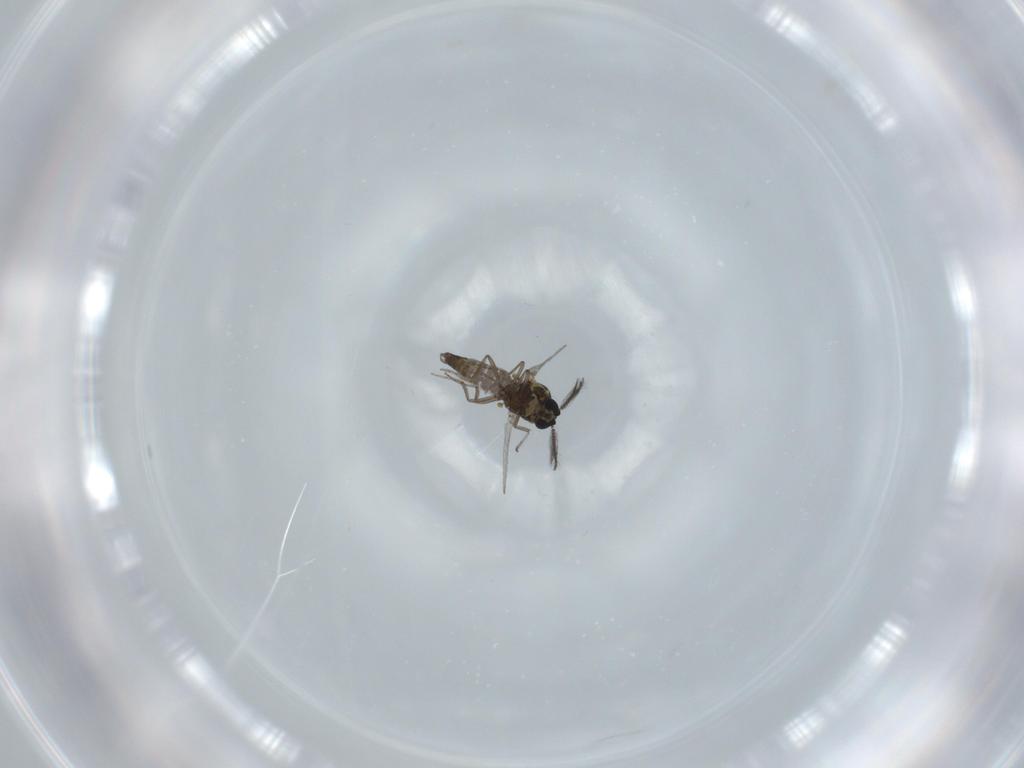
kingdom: Animalia
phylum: Arthropoda
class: Insecta
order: Diptera
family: Ceratopogonidae
